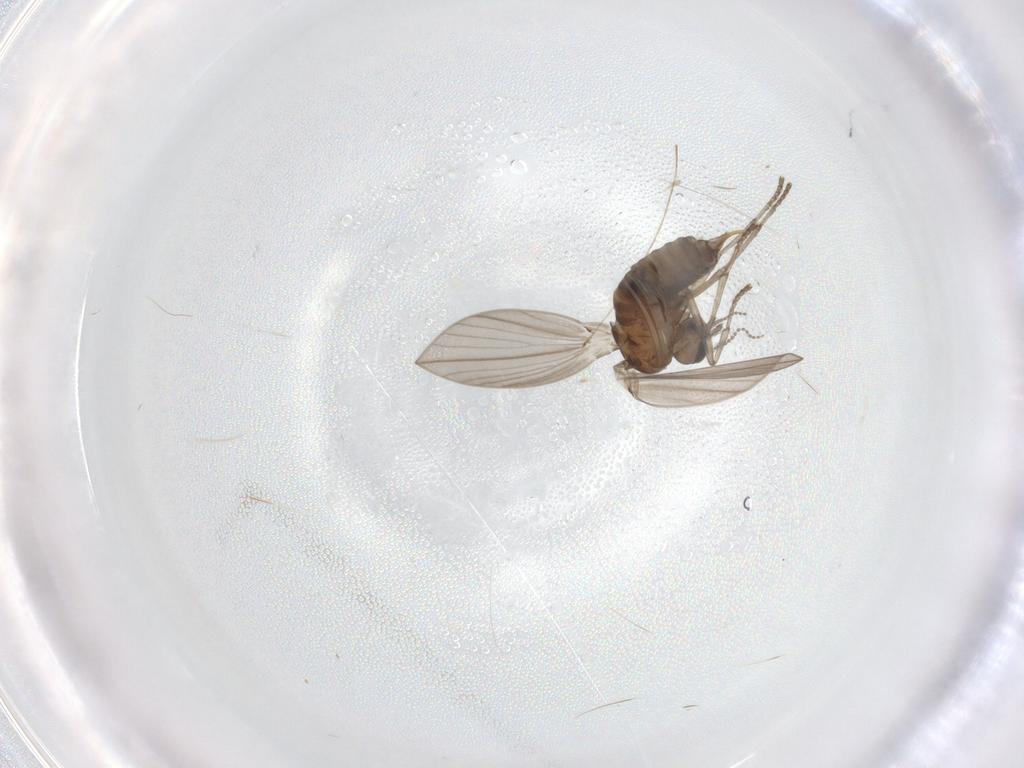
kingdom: Animalia
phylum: Arthropoda
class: Insecta
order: Diptera
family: Psychodidae
